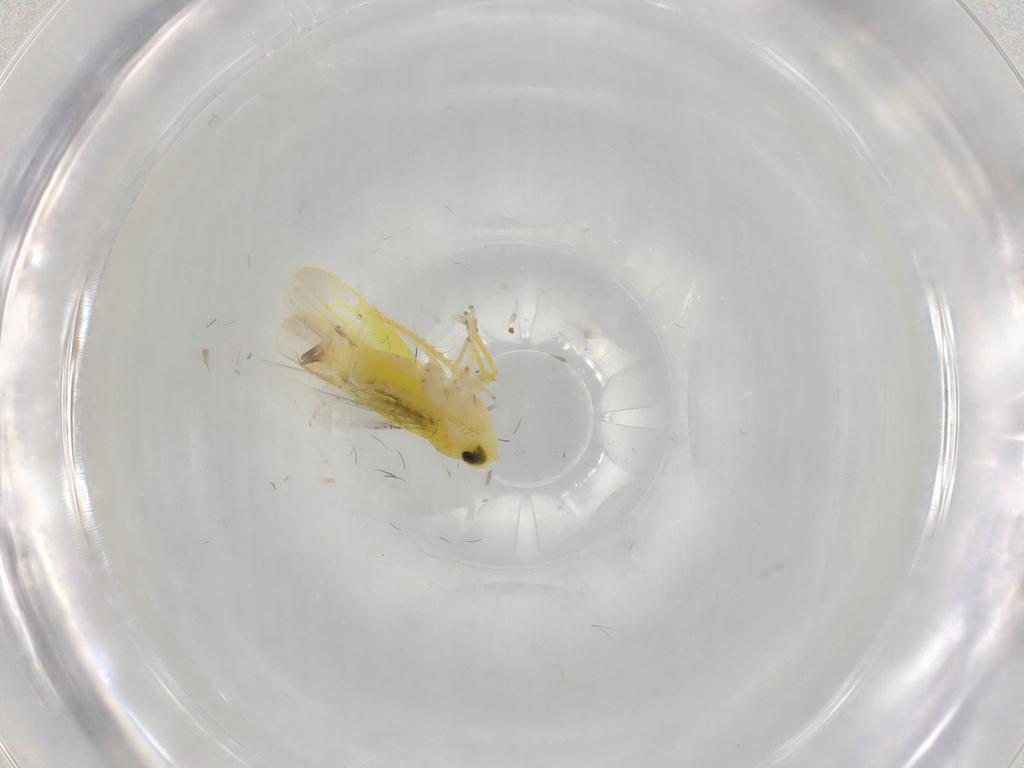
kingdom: Animalia
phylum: Arthropoda
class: Insecta
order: Hemiptera
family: Cicadellidae
